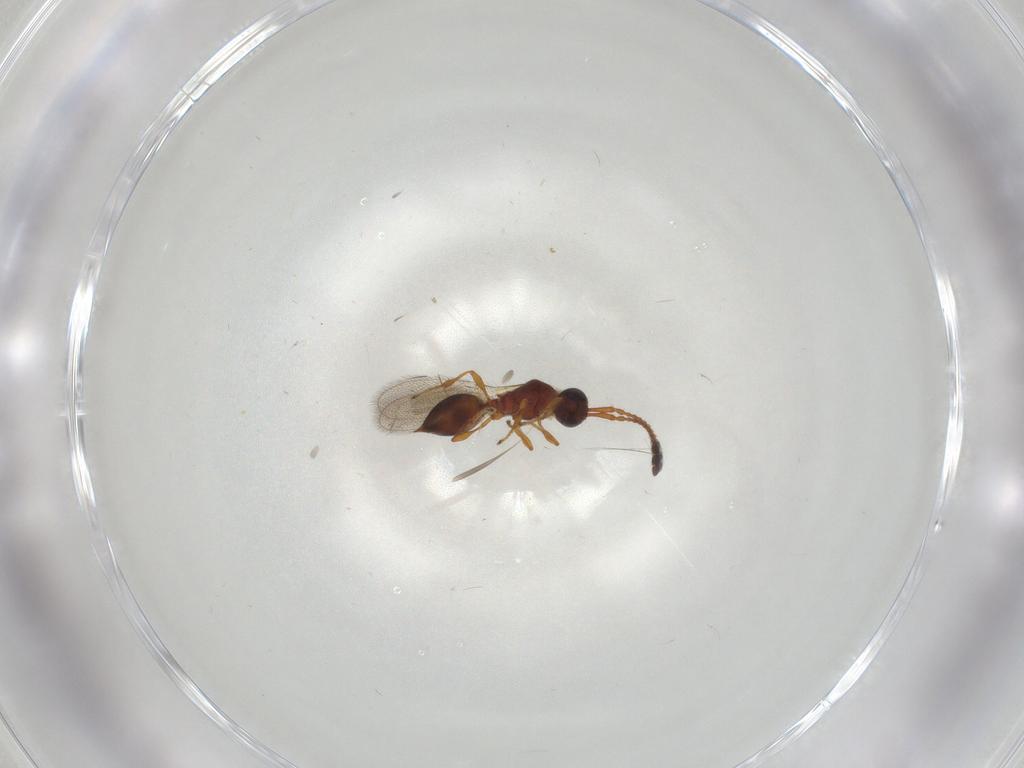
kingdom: Animalia
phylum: Arthropoda
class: Insecta
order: Hymenoptera
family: Diapriidae
